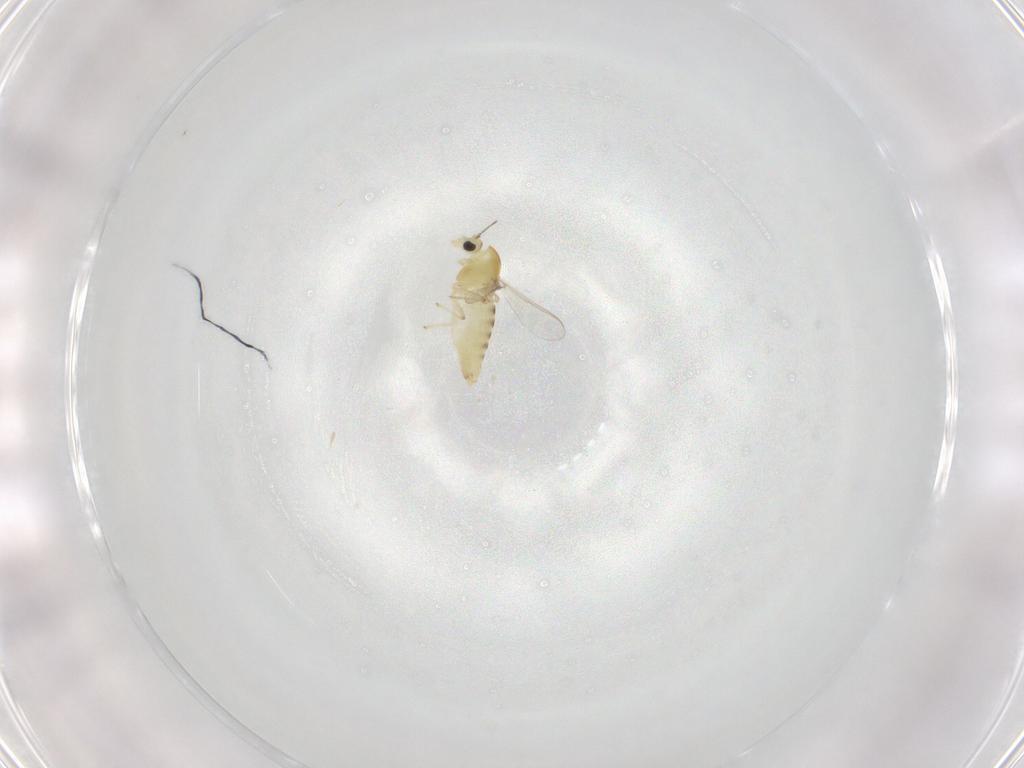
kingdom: Animalia
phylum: Arthropoda
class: Insecta
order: Diptera
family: Chironomidae
